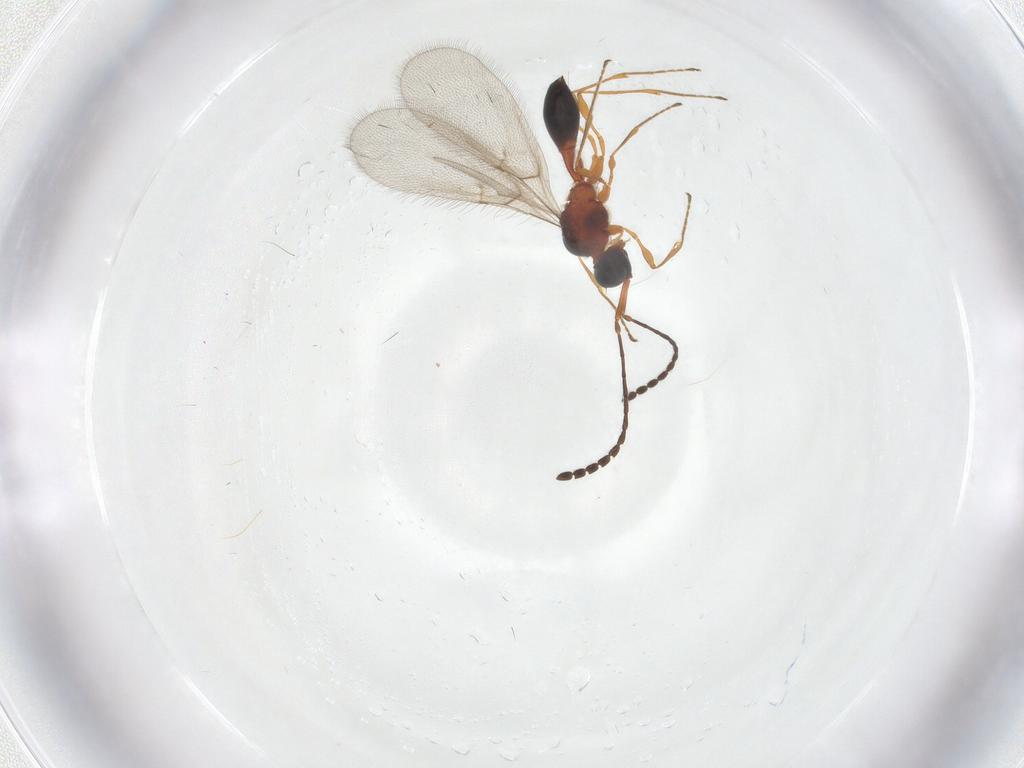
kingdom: Animalia
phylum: Arthropoda
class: Insecta
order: Hymenoptera
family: Diapriidae
